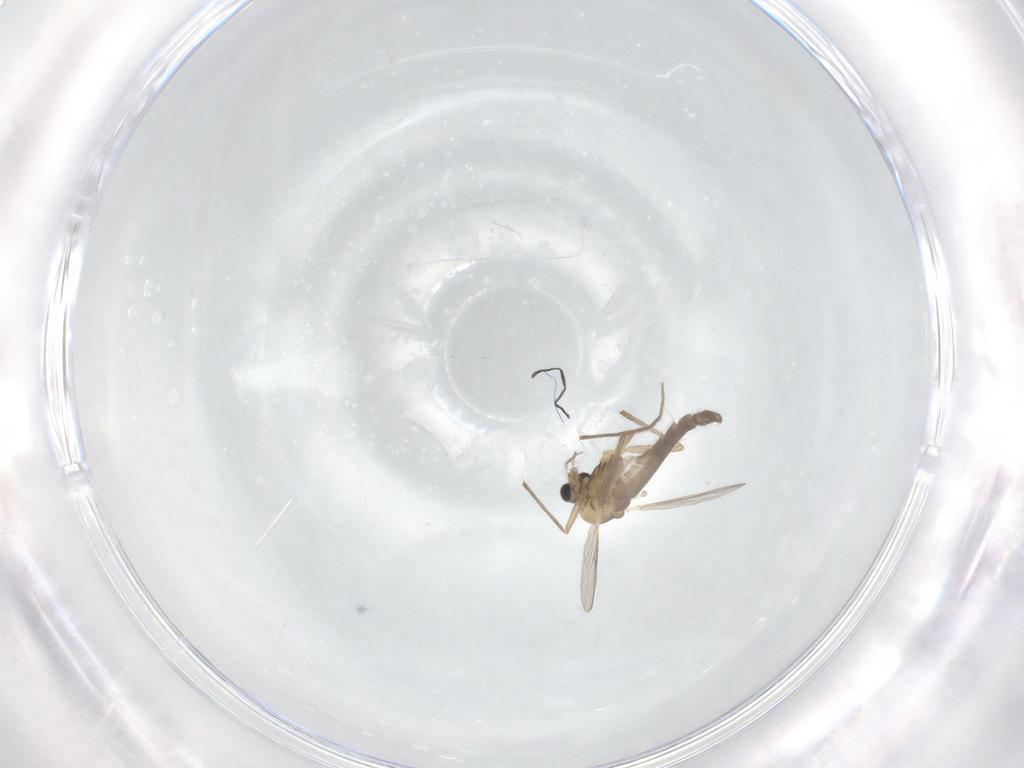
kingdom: Animalia
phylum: Arthropoda
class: Insecta
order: Diptera
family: Chironomidae
